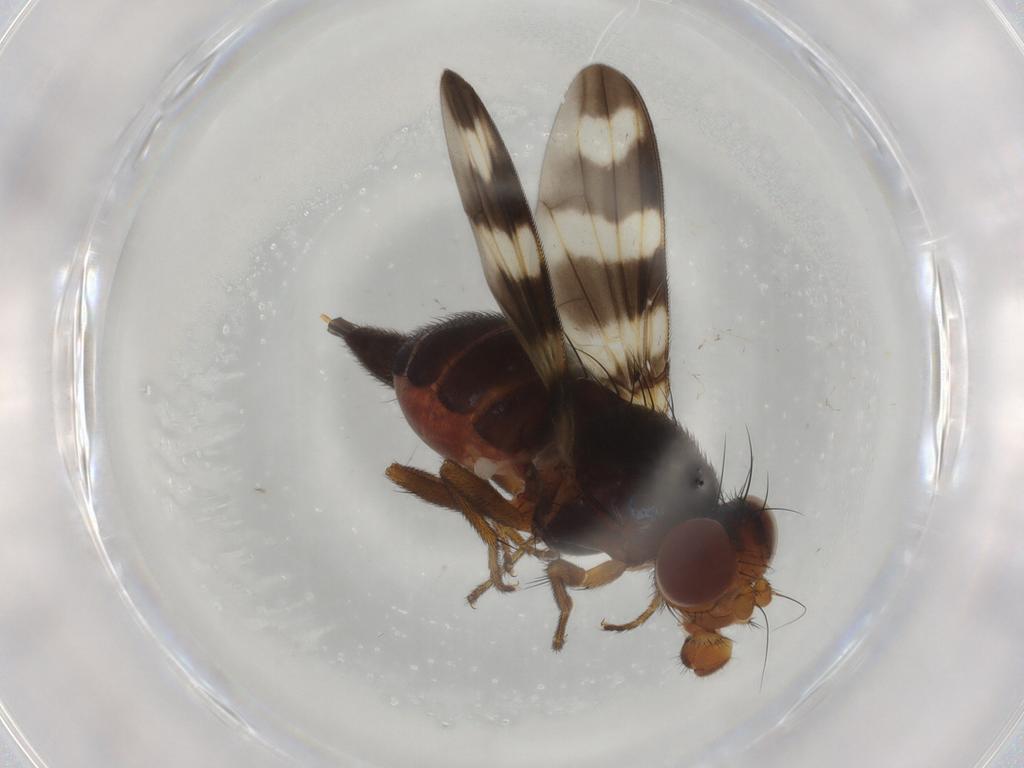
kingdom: Animalia
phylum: Arthropoda
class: Insecta
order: Diptera
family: Ulidiidae
